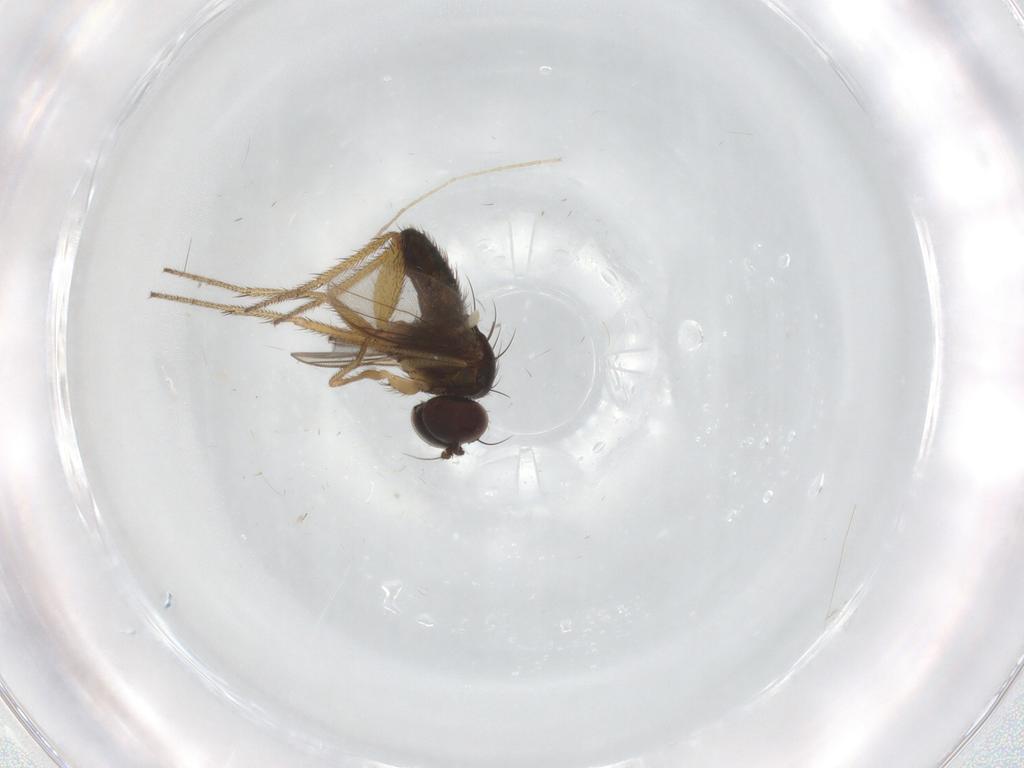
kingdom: Animalia
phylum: Arthropoda
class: Insecta
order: Diptera
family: Dolichopodidae
